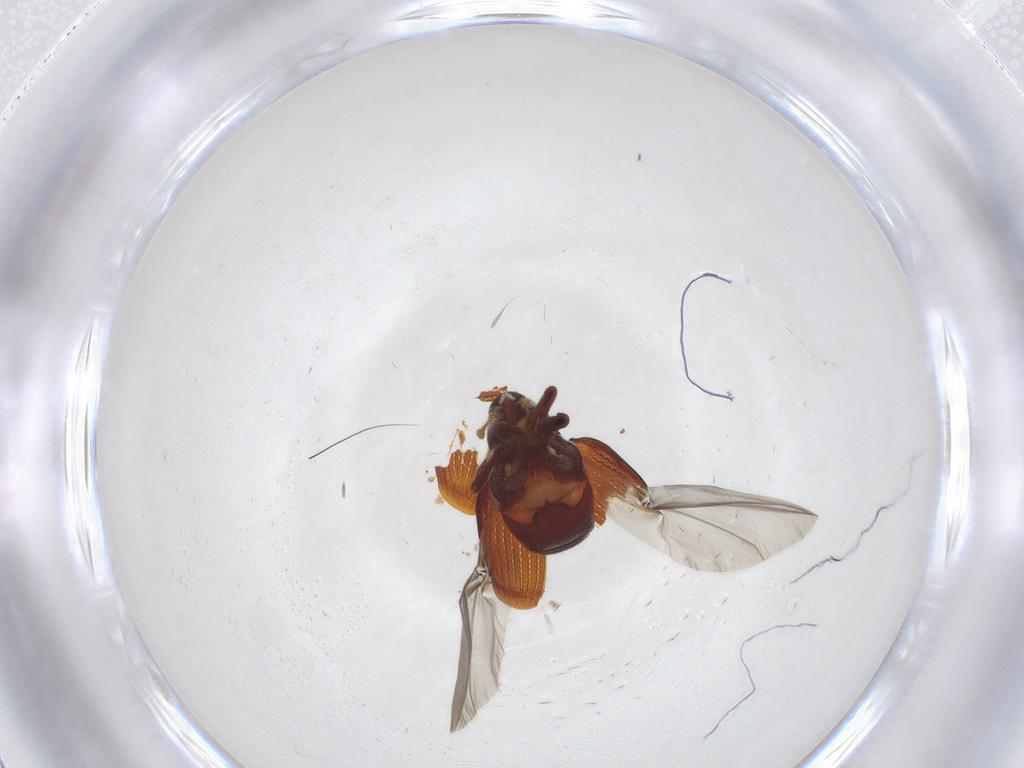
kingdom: Animalia
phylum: Arthropoda
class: Insecta
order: Coleoptera
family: Curculionidae
